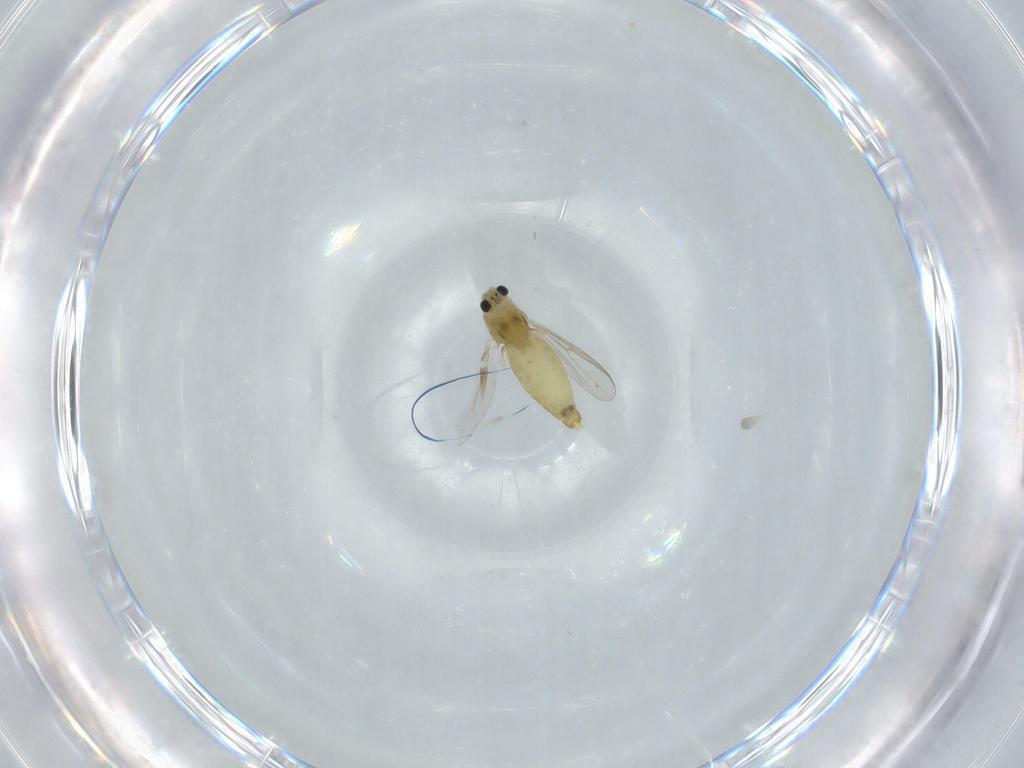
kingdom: Animalia
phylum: Arthropoda
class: Insecta
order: Diptera
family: Chironomidae
